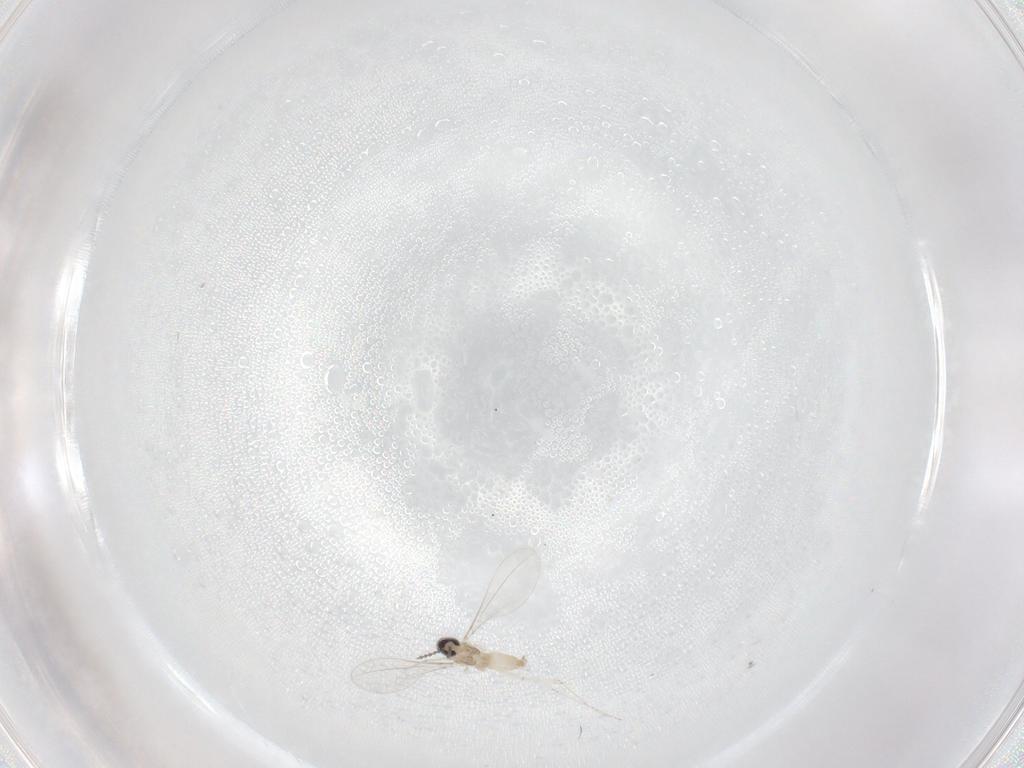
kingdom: Animalia
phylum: Arthropoda
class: Insecta
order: Diptera
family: Cecidomyiidae
